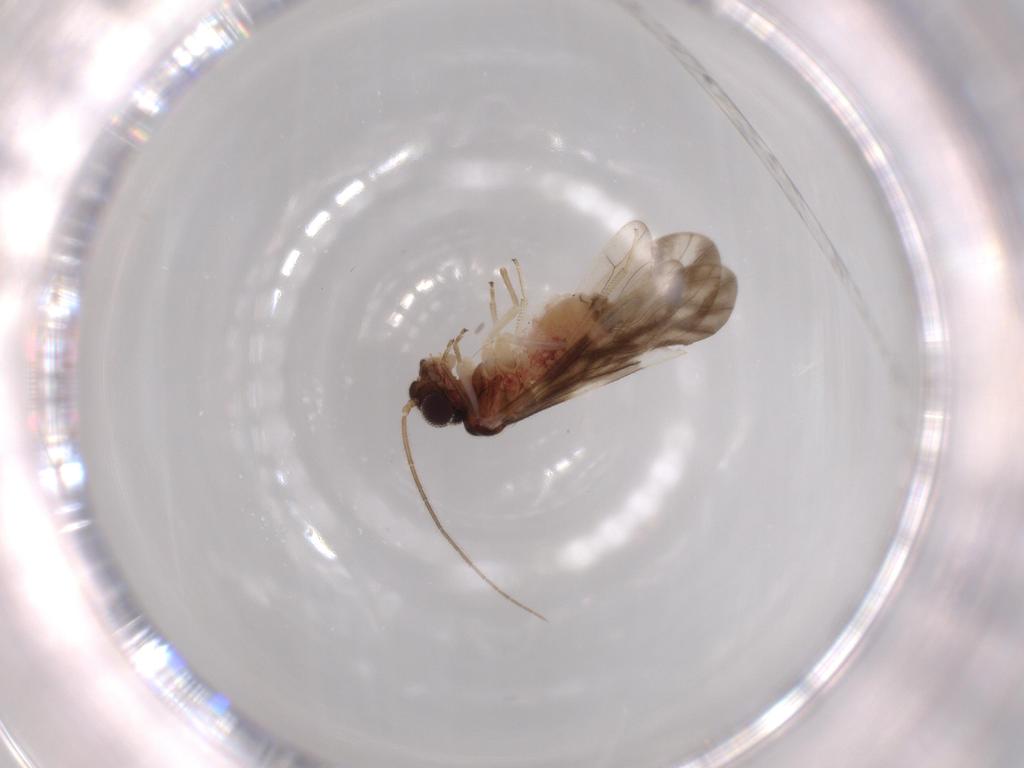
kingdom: Animalia
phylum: Arthropoda
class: Insecta
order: Psocodea
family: Caeciliusidae
